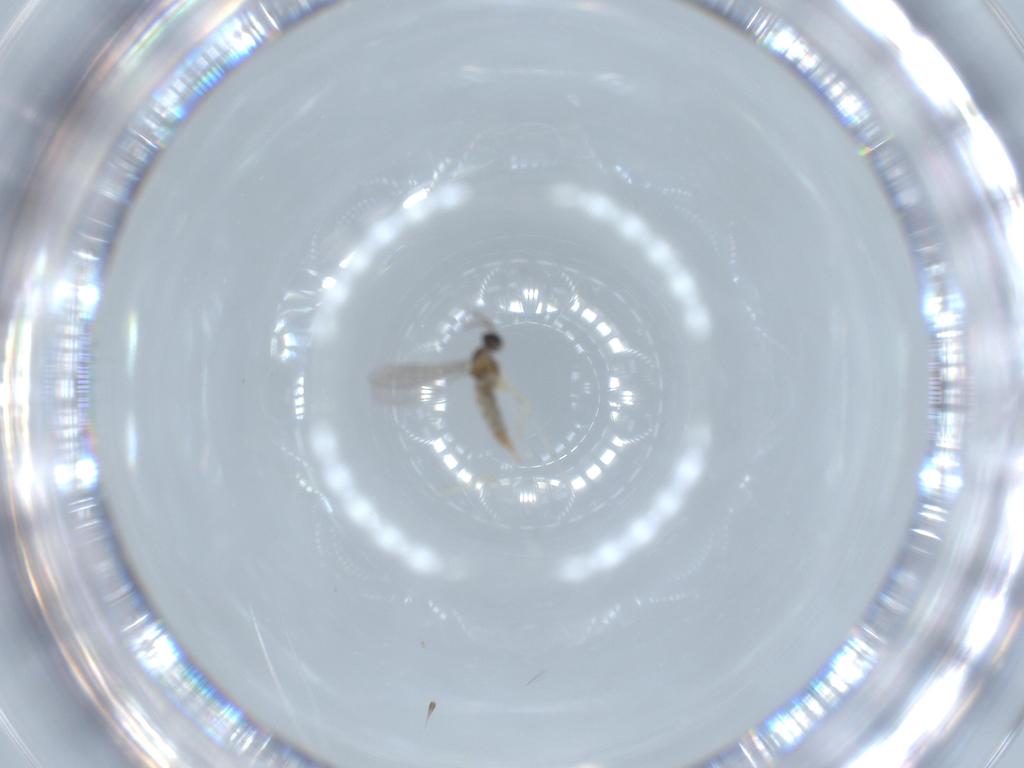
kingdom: Animalia
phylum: Arthropoda
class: Insecta
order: Diptera
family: Cecidomyiidae
